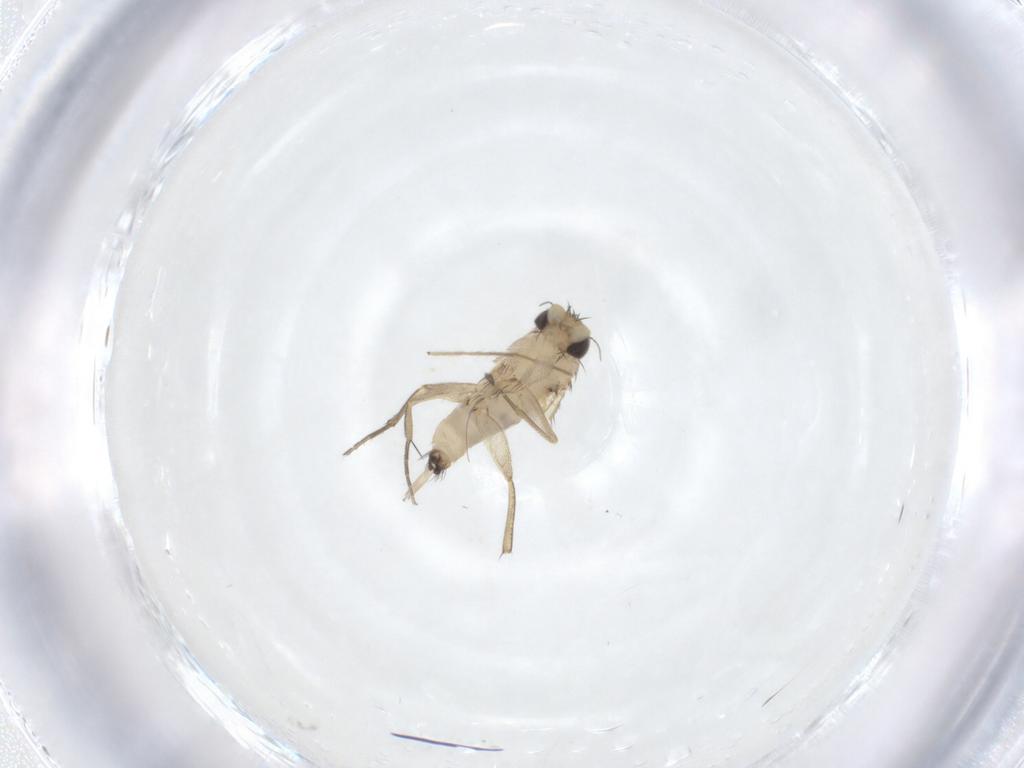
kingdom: Animalia
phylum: Arthropoda
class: Insecta
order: Diptera
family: Phoridae
